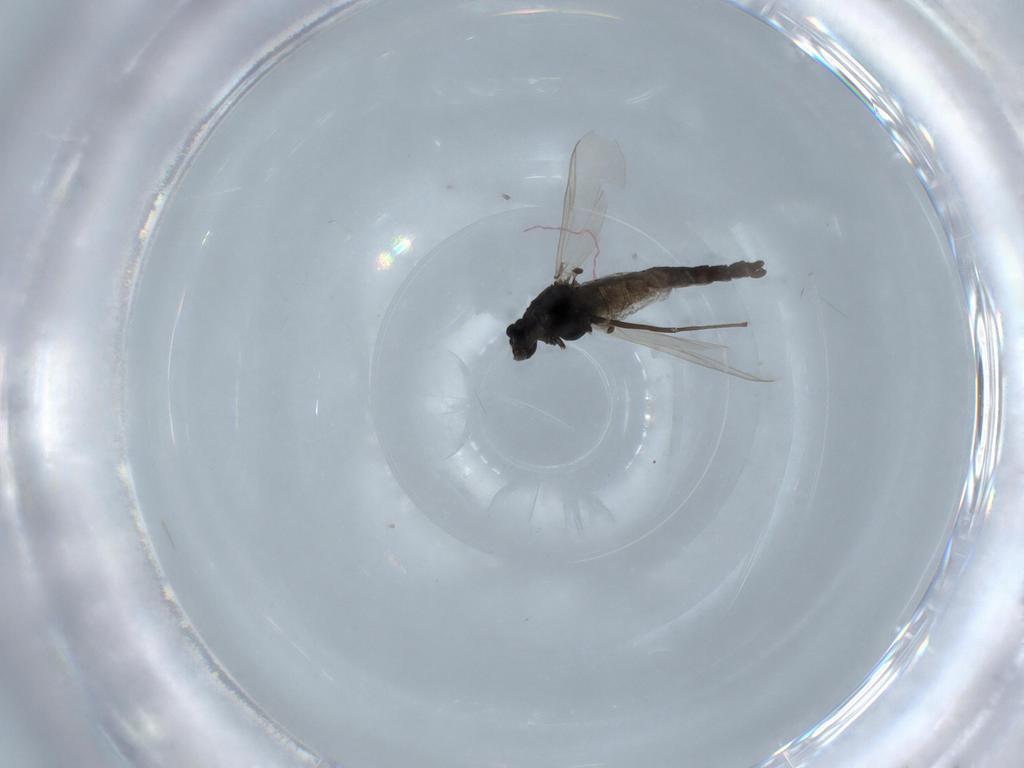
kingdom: Animalia
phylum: Arthropoda
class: Insecta
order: Diptera
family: Chironomidae
